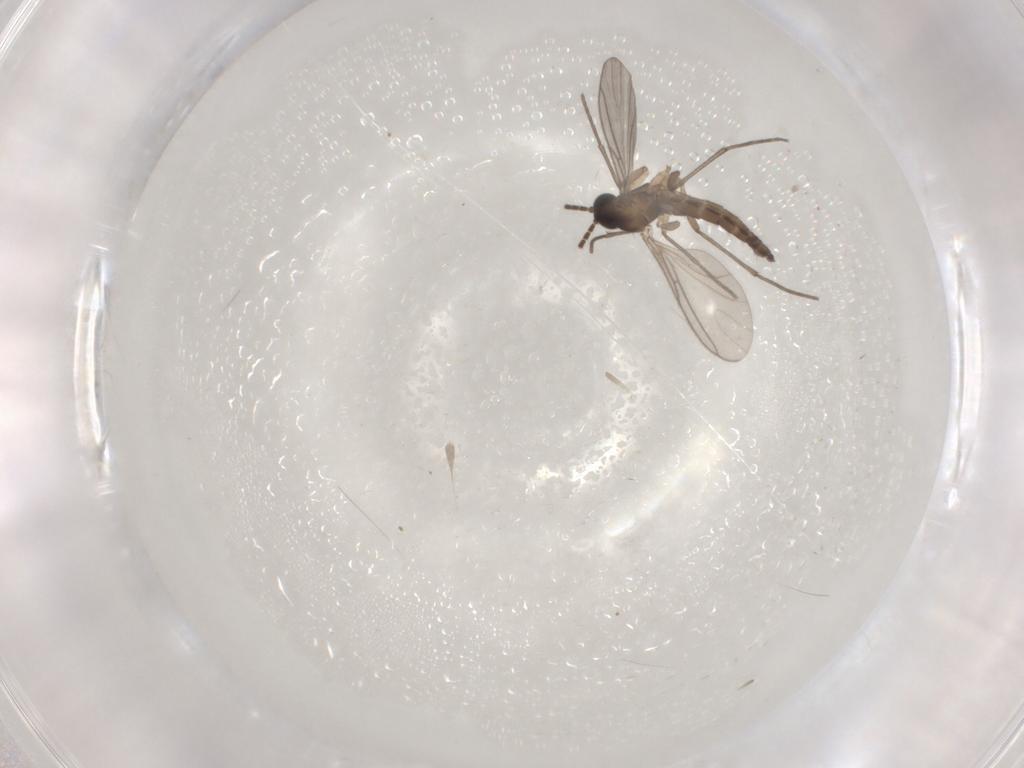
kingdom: Animalia
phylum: Arthropoda
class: Insecta
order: Diptera
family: Sciaridae
